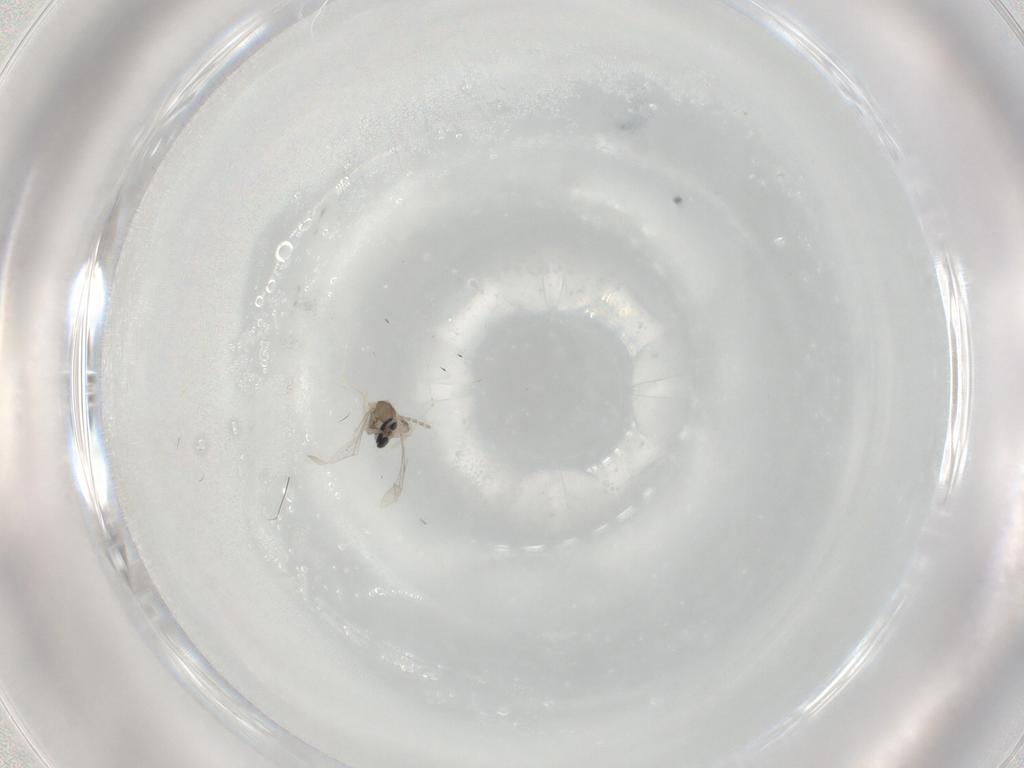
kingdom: Animalia
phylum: Arthropoda
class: Insecta
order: Diptera
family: Cecidomyiidae
